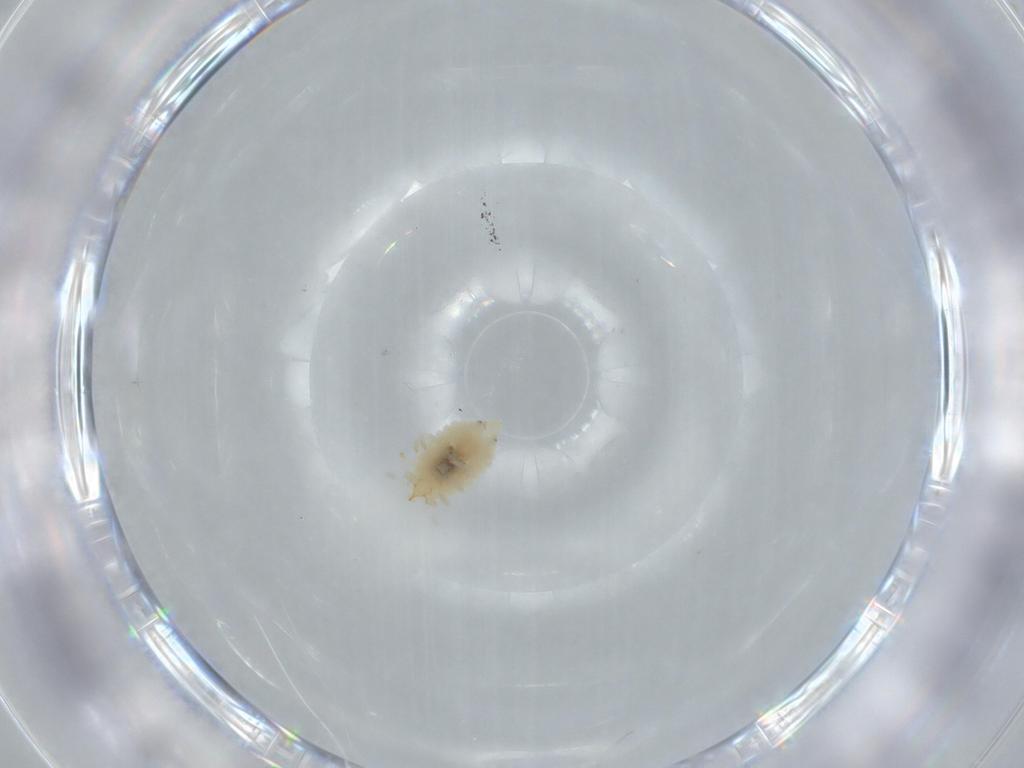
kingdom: Animalia
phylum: Arthropoda
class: Insecta
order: Neuroptera
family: Coniopterygidae
